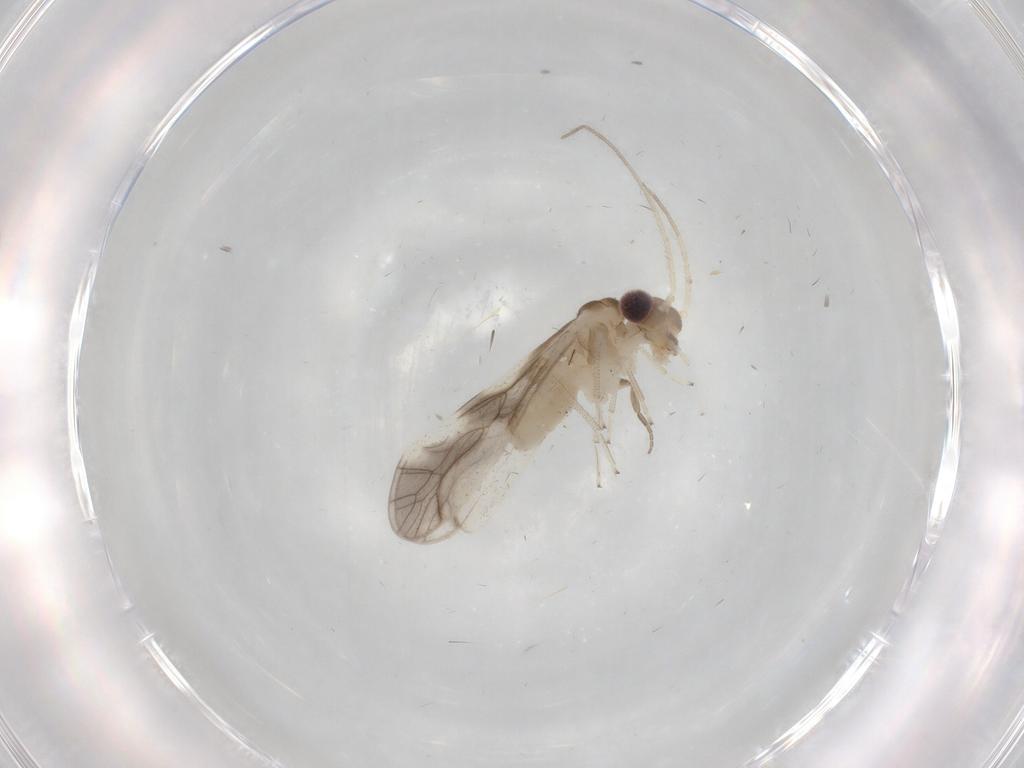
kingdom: Animalia
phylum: Arthropoda
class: Insecta
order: Psocodea
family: Caeciliusidae
